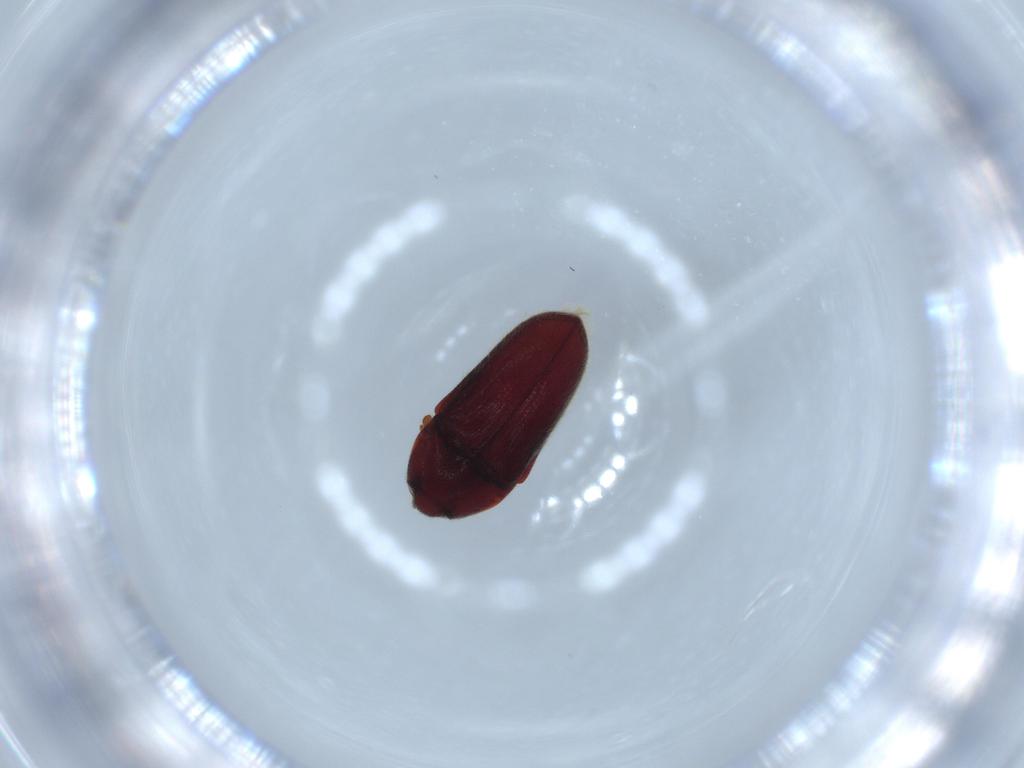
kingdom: Animalia
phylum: Arthropoda
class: Insecta
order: Coleoptera
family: Throscidae
